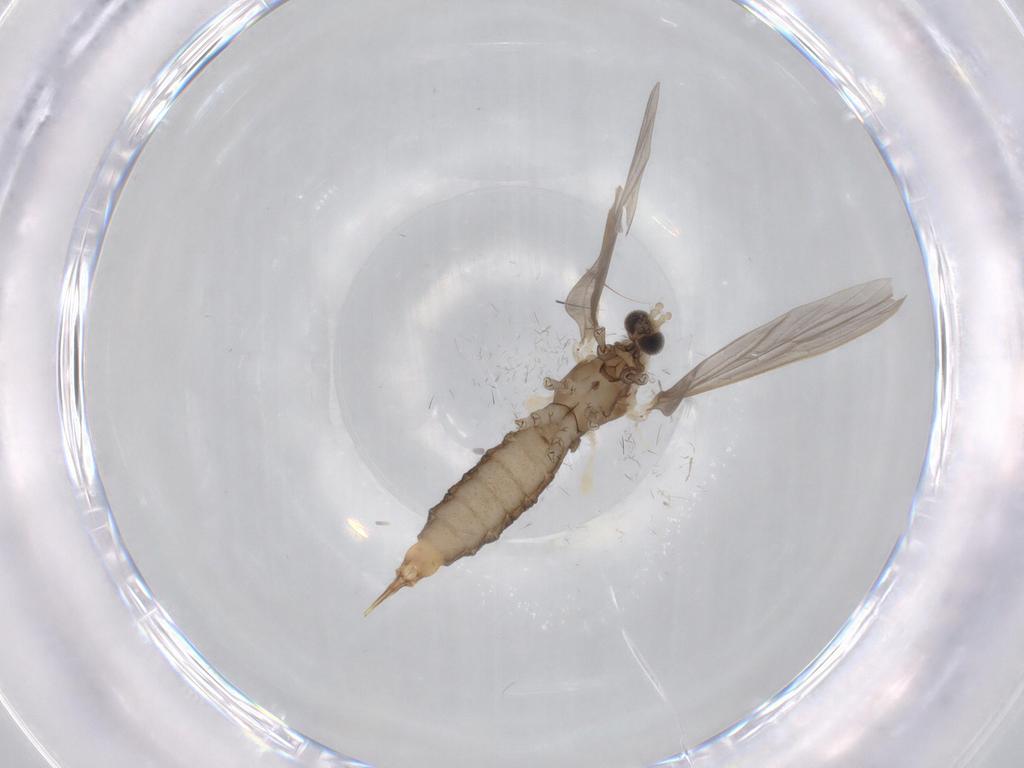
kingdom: Animalia
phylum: Arthropoda
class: Insecta
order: Diptera
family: Limoniidae
